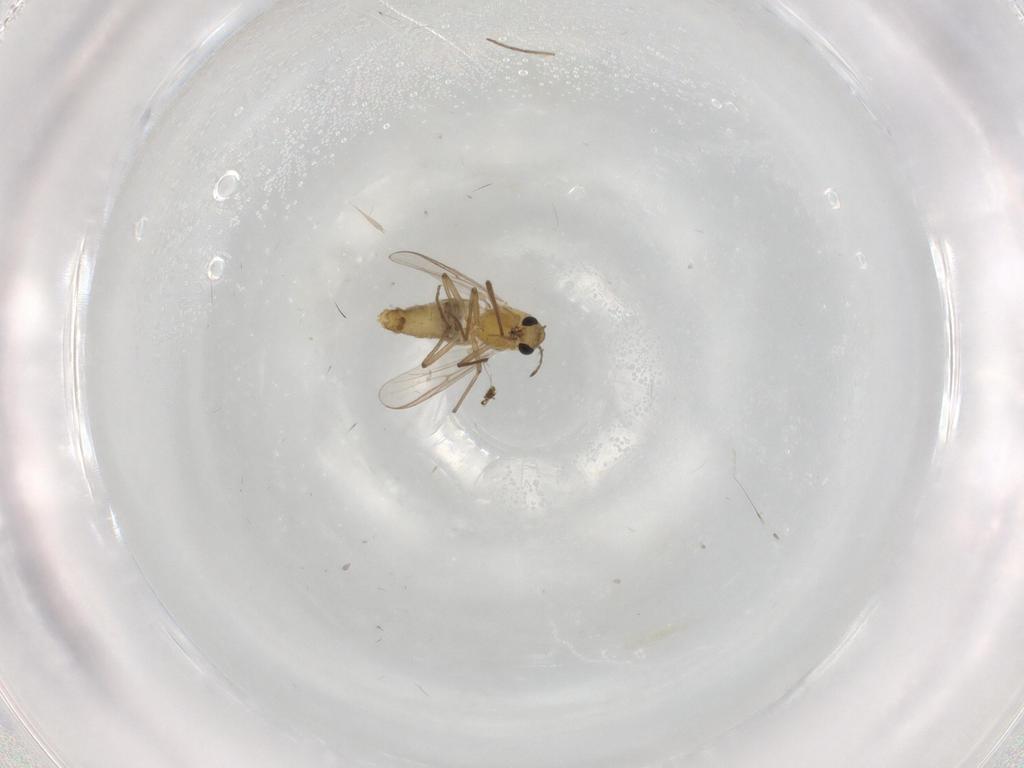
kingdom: Animalia
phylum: Arthropoda
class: Insecta
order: Diptera
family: Chironomidae
